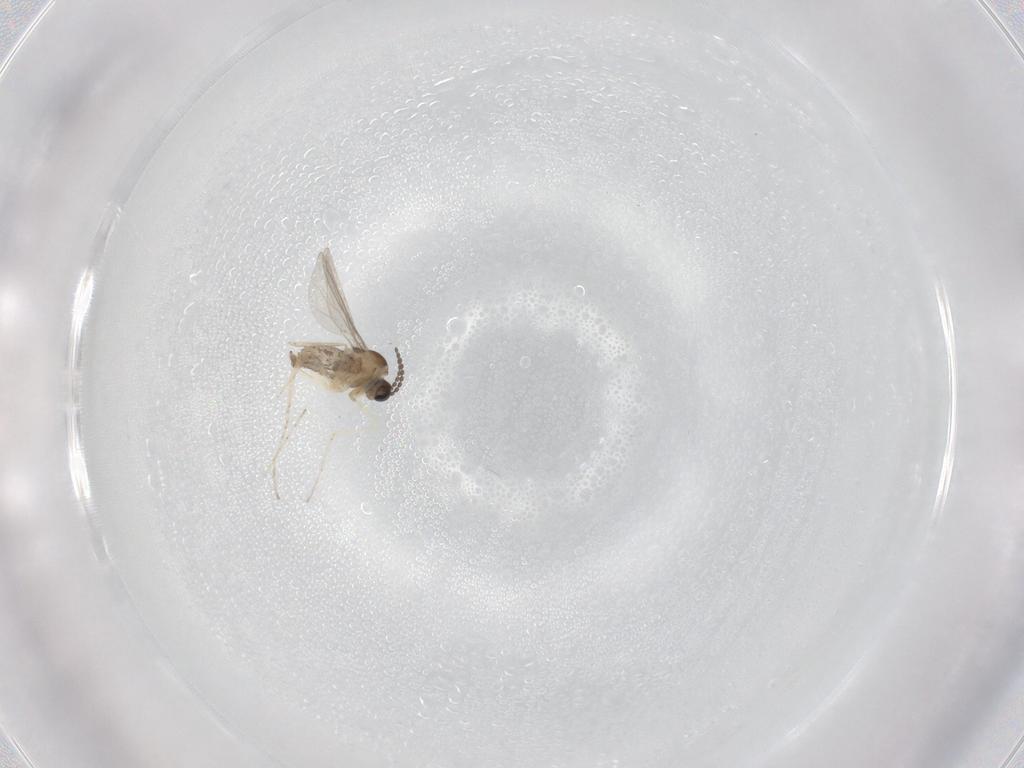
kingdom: Animalia
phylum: Arthropoda
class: Insecta
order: Diptera
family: Cecidomyiidae
